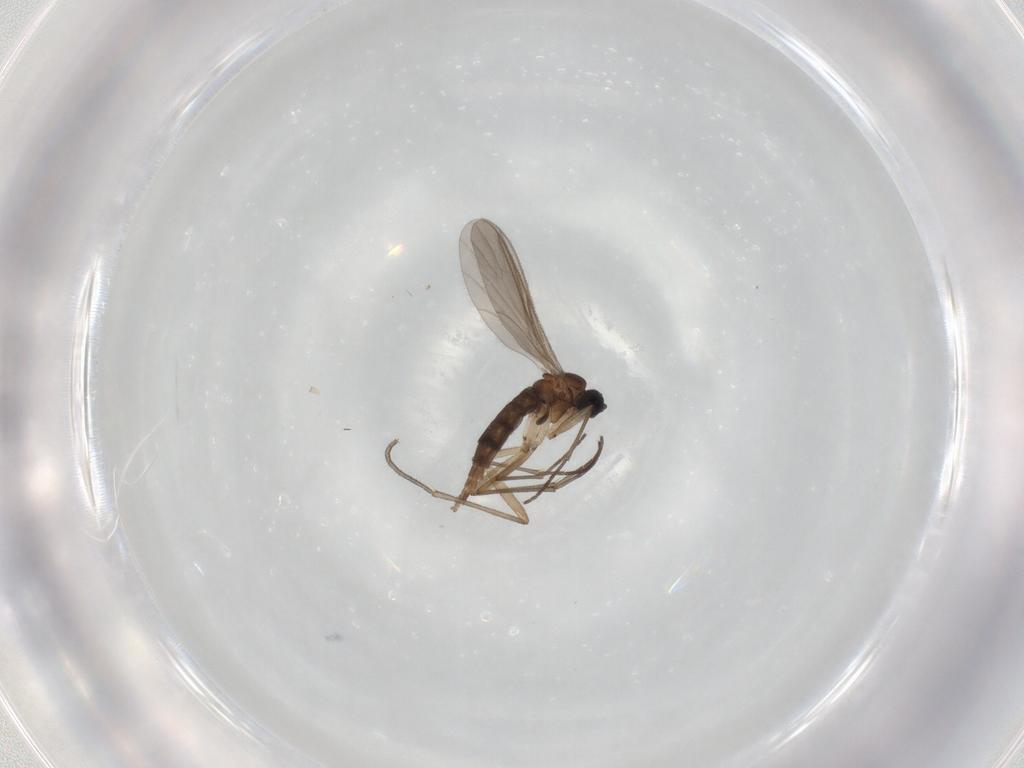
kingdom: Animalia
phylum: Arthropoda
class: Insecta
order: Diptera
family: Sciaridae
